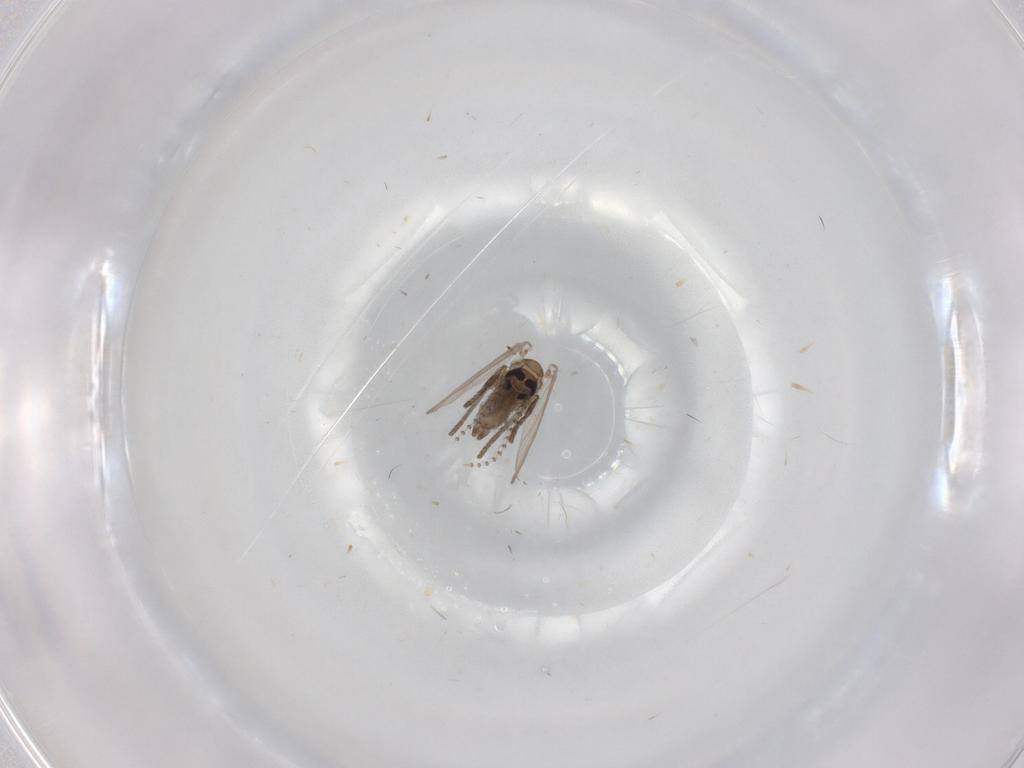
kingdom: Animalia
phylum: Arthropoda
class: Insecta
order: Diptera
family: Psychodidae
